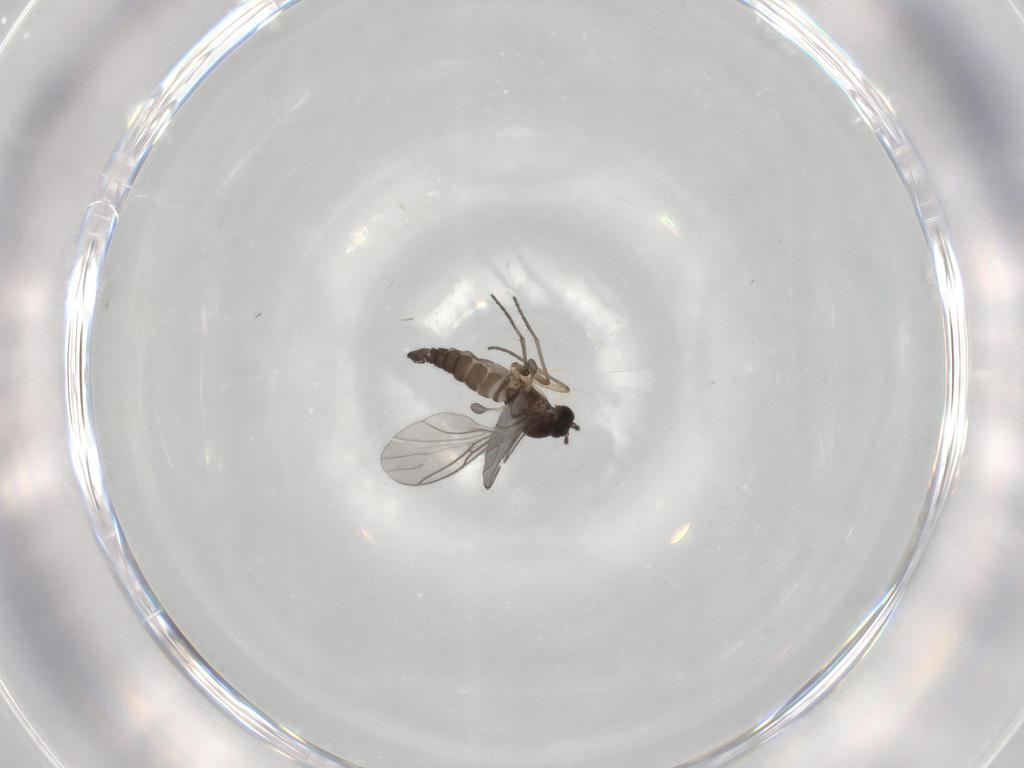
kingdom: Animalia
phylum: Arthropoda
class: Insecta
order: Diptera
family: Sciaridae
